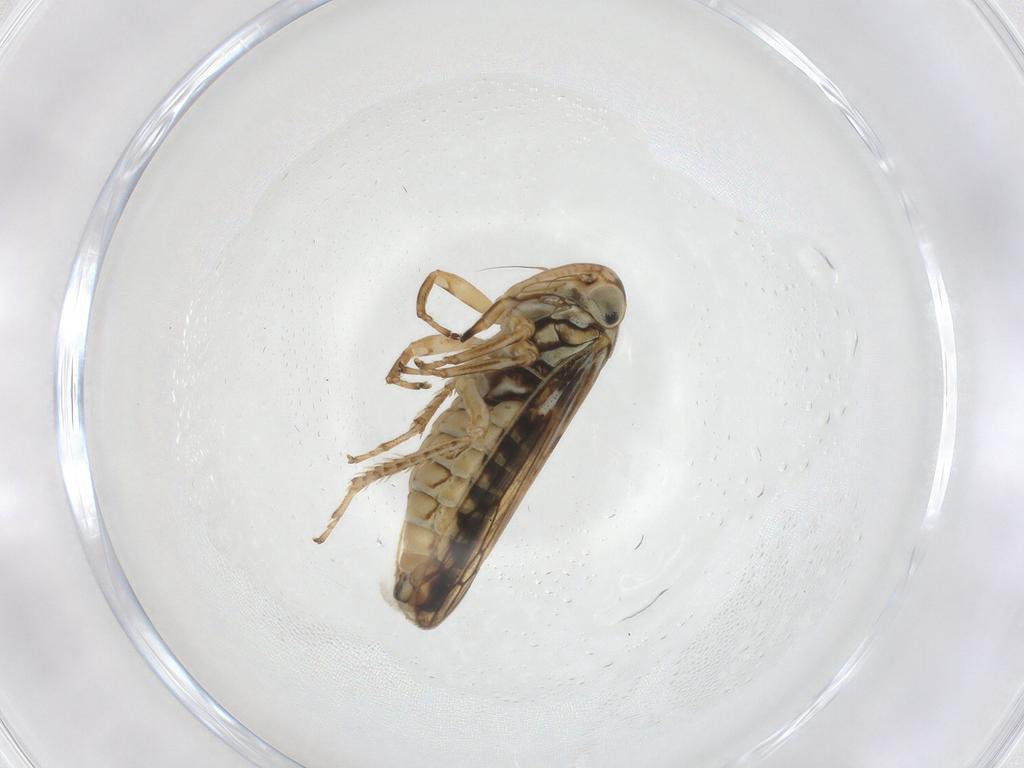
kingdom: Animalia
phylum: Arthropoda
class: Insecta
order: Hemiptera
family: Cicadellidae
